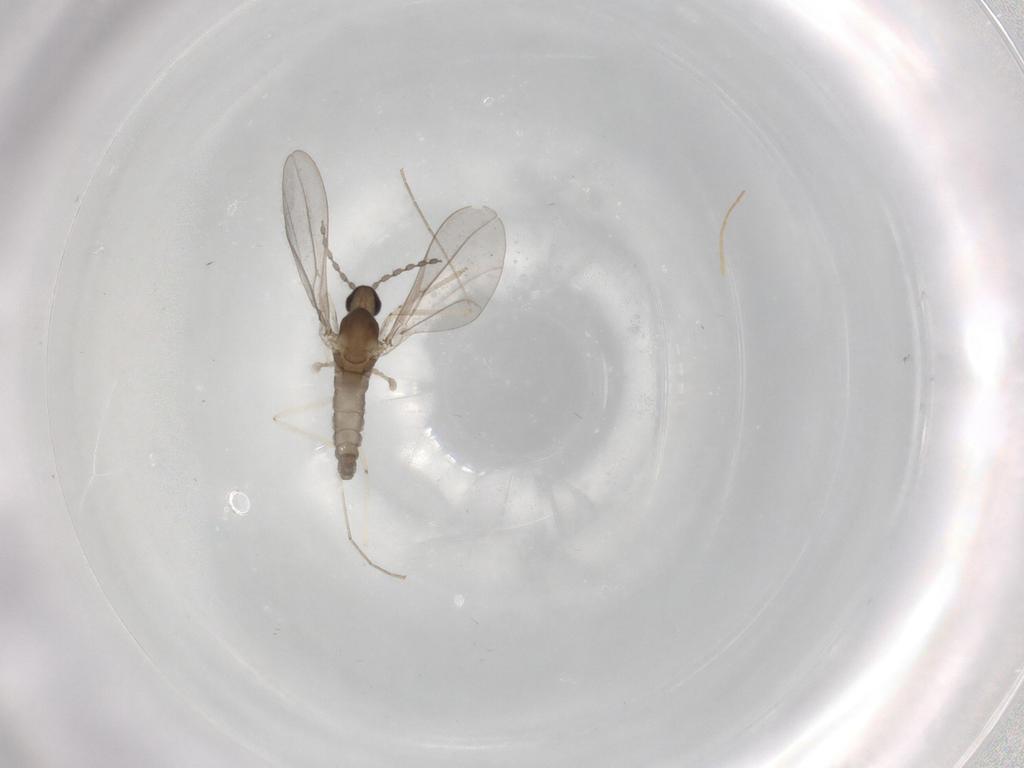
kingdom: Animalia
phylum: Arthropoda
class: Insecta
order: Diptera
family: Cecidomyiidae
